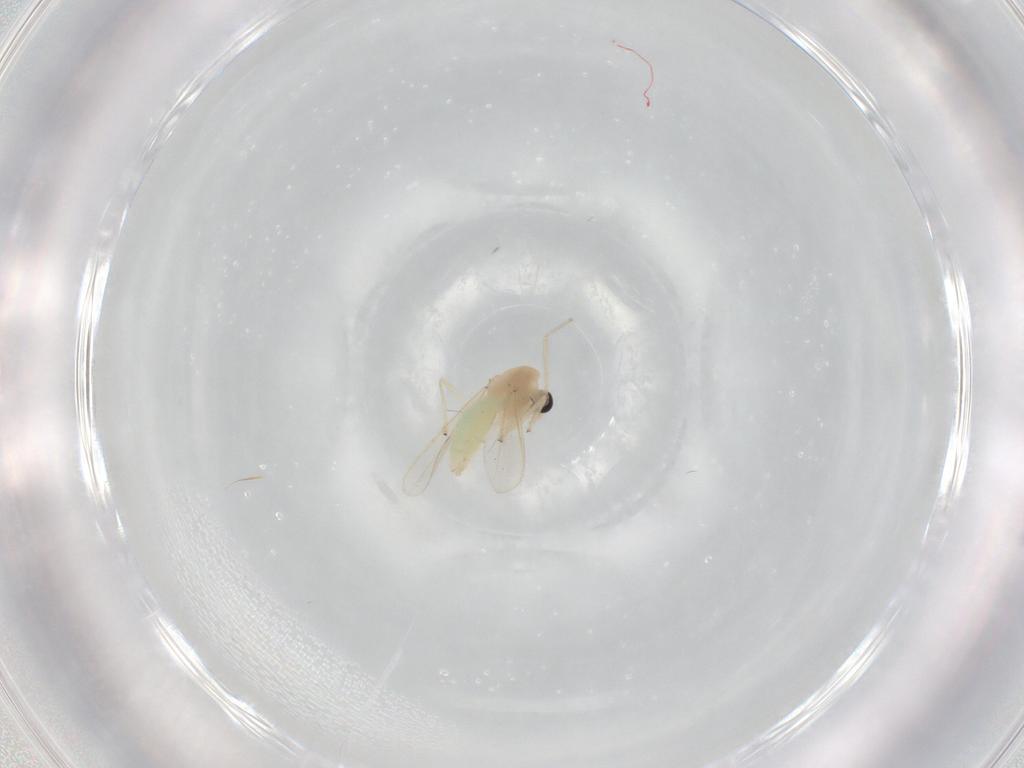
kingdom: Animalia
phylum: Arthropoda
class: Insecta
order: Diptera
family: Chironomidae
